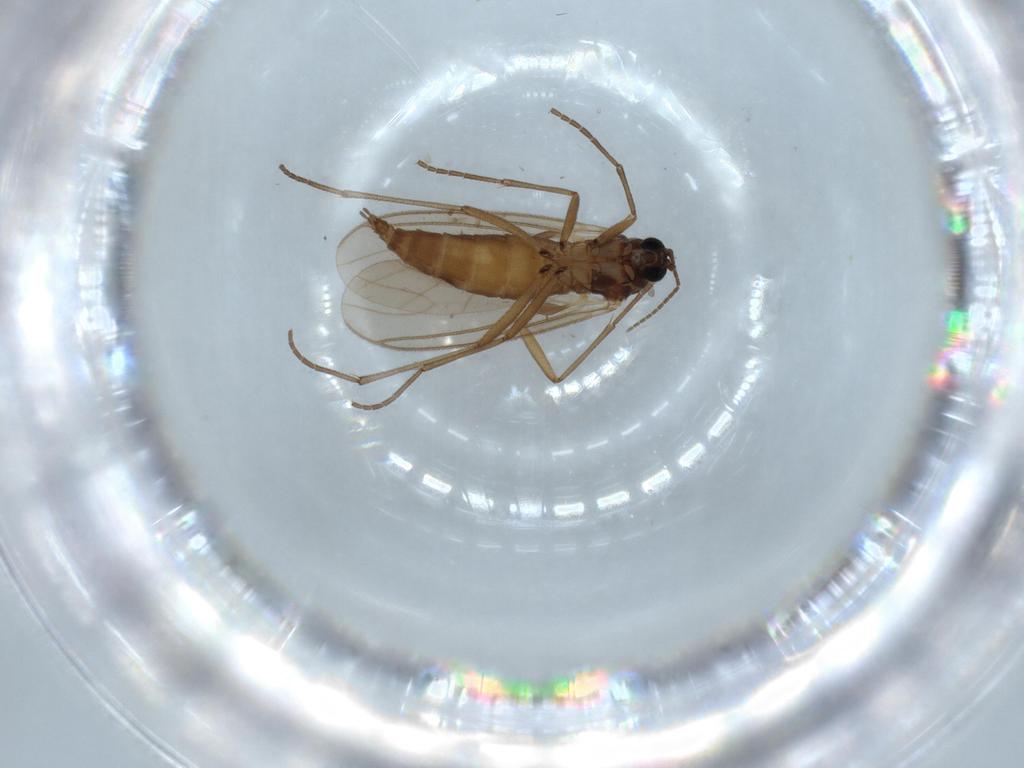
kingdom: Animalia
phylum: Arthropoda
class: Insecta
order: Diptera
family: Sciaridae
